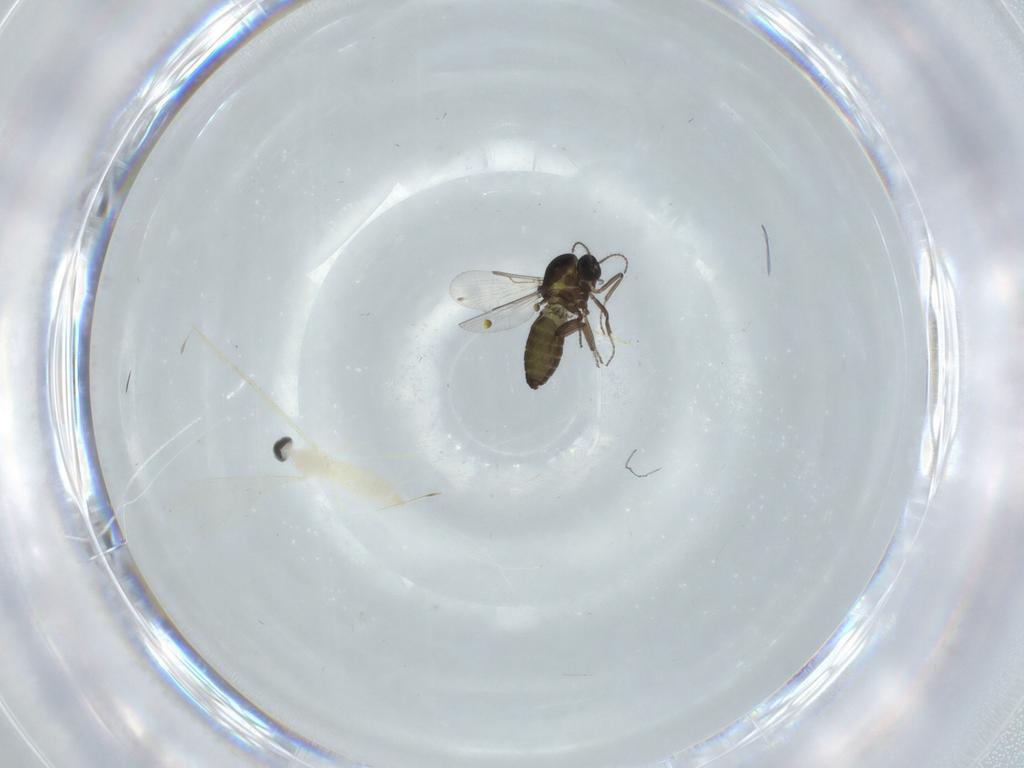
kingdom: Animalia
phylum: Arthropoda
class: Insecta
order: Diptera
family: Ceratopogonidae
